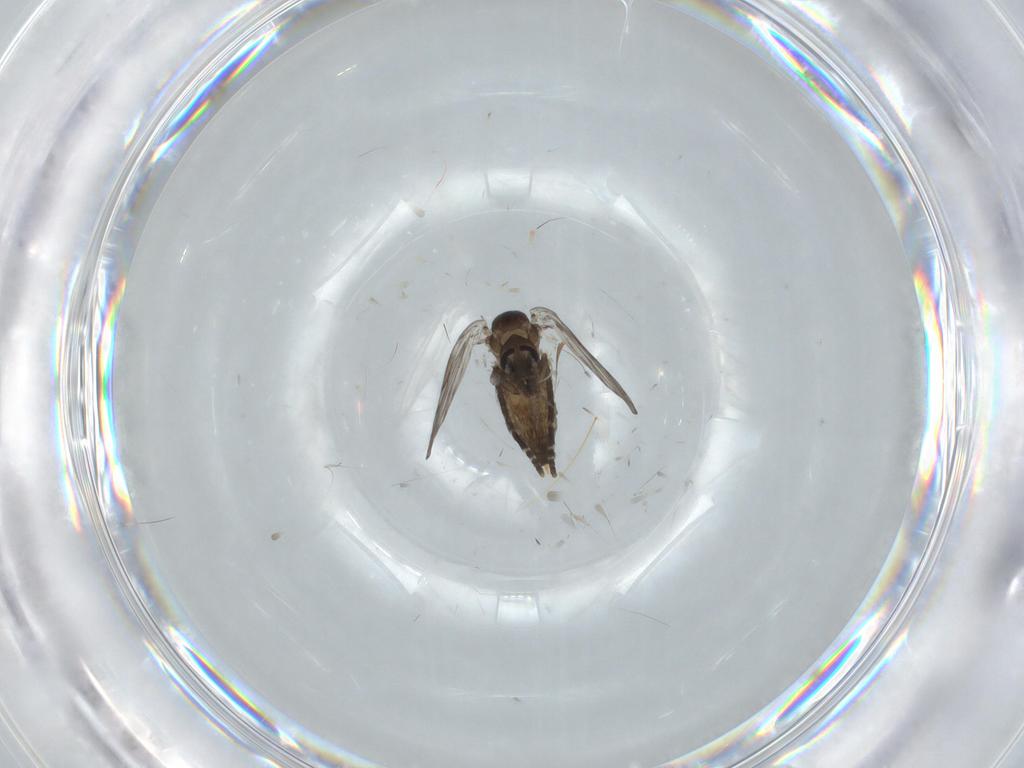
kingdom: Animalia
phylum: Arthropoda
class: Insecta
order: Diptera
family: Psychodidae
